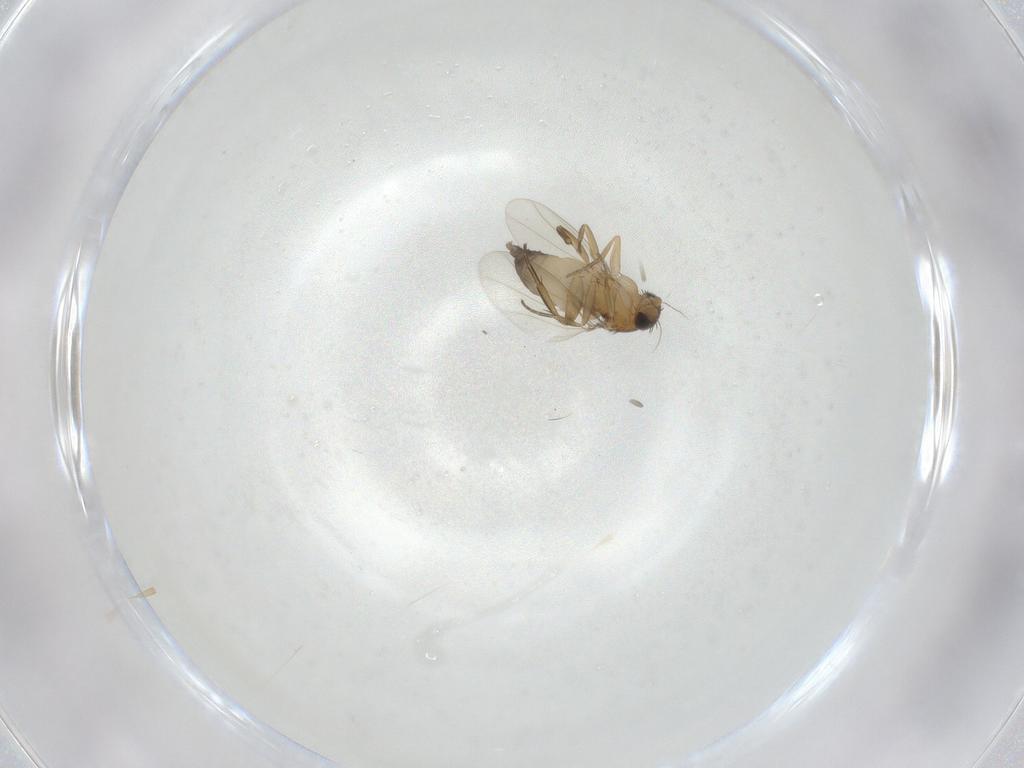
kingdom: Animalia
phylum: Arthropoda
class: Insecta
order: Diptera
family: Phoridae
